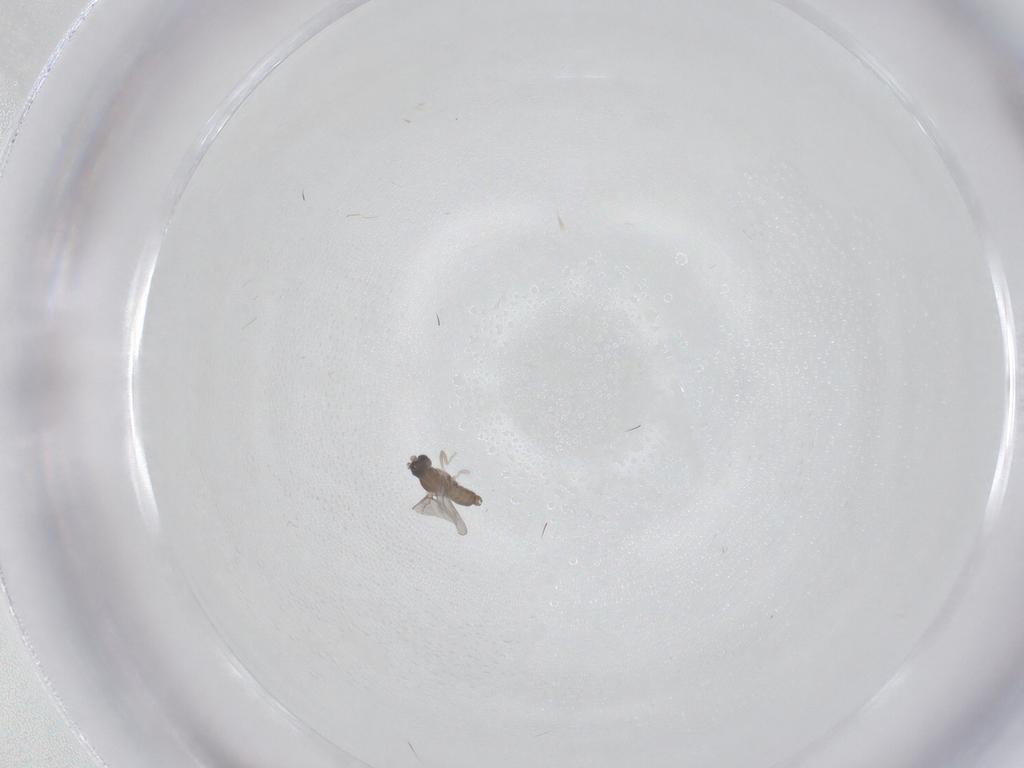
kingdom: Animalia
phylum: Arthropoda
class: Insecta
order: Diptera
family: Cecidomyiidae
